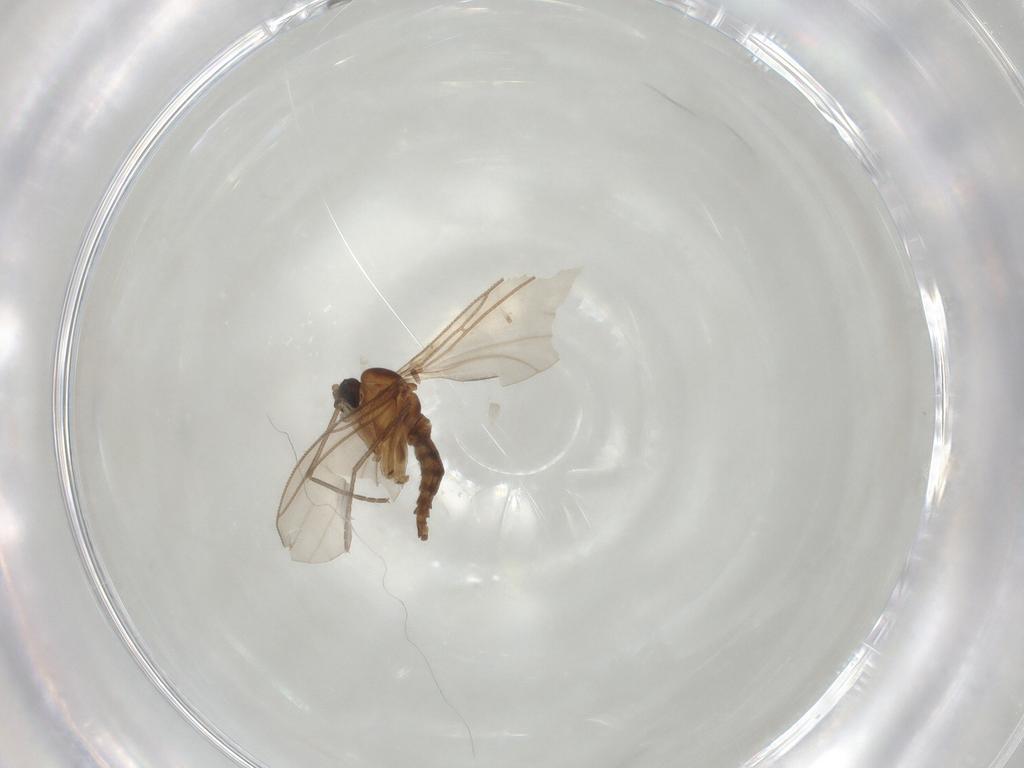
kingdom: Animalia
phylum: Arthropoda
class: Insecta
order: Diptera
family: Sciaridae
